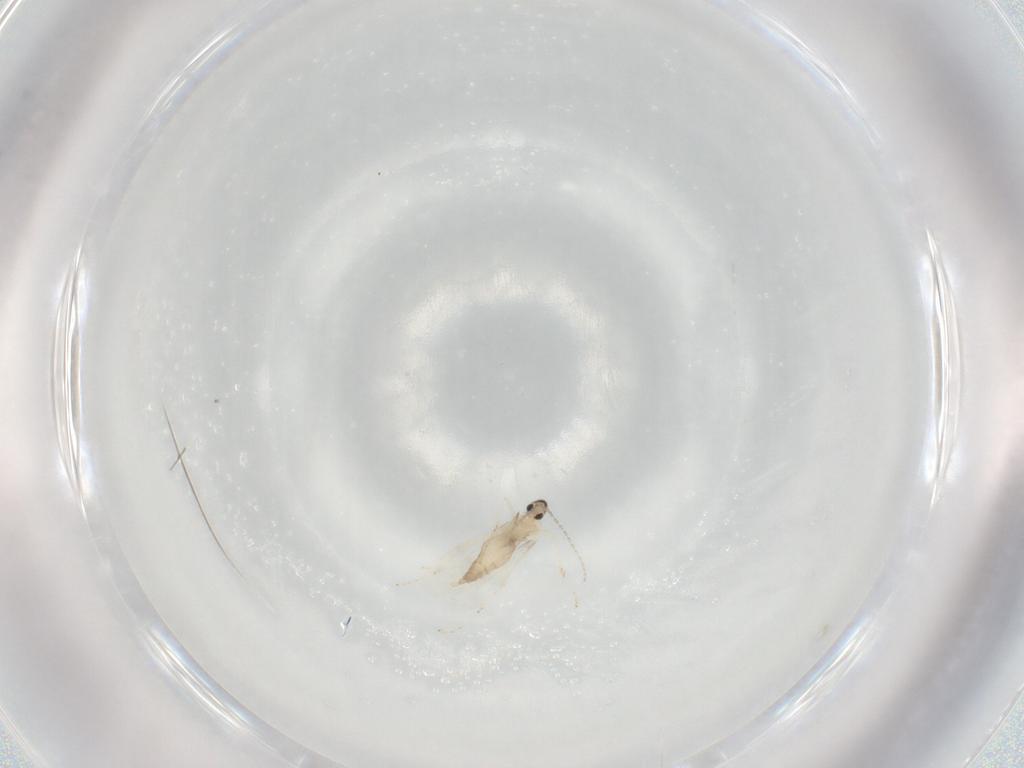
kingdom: Animalia
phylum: Arthropoda
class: Insecta
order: Diptera
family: Cecidomyiidae
